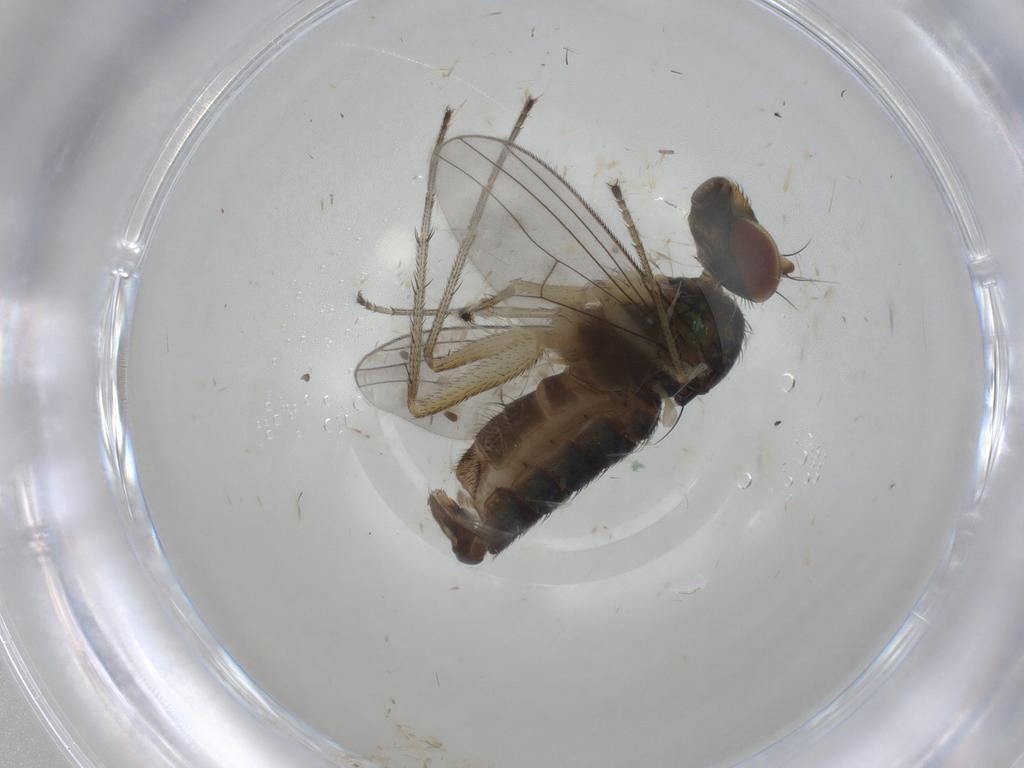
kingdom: Animalia
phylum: Arthropoda
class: Insecta
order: Diptera
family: Dolichopodidae
